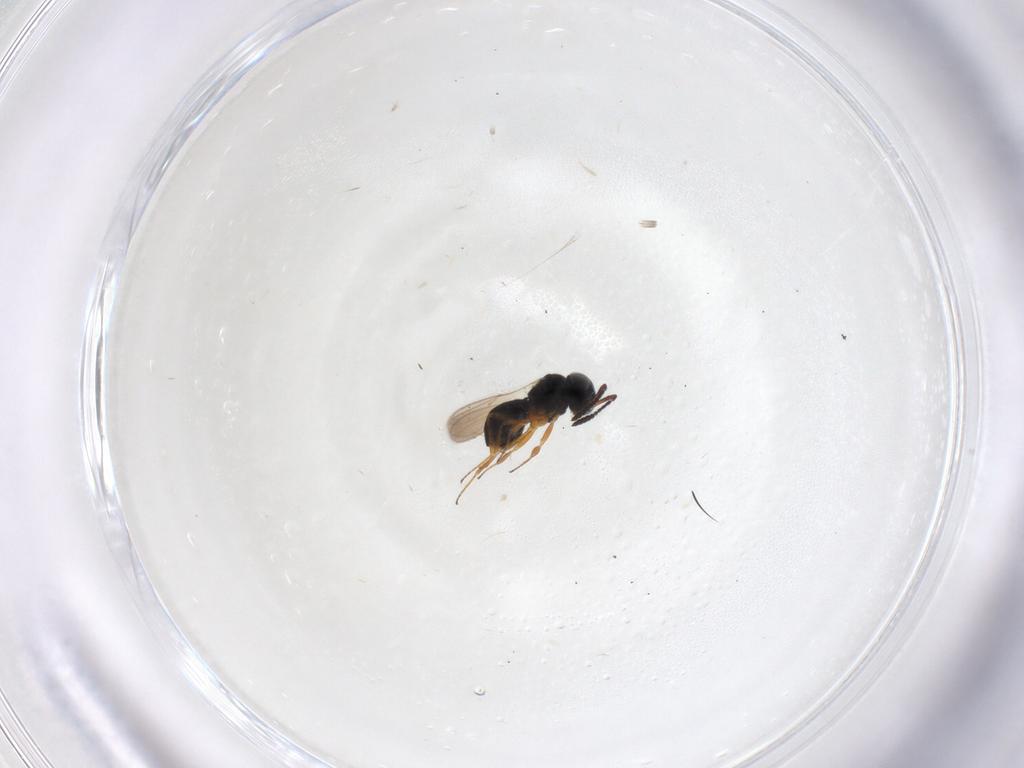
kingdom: Animalia
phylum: Arthropoda
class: Insecta
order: Hymenoptera
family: Scelionidae
